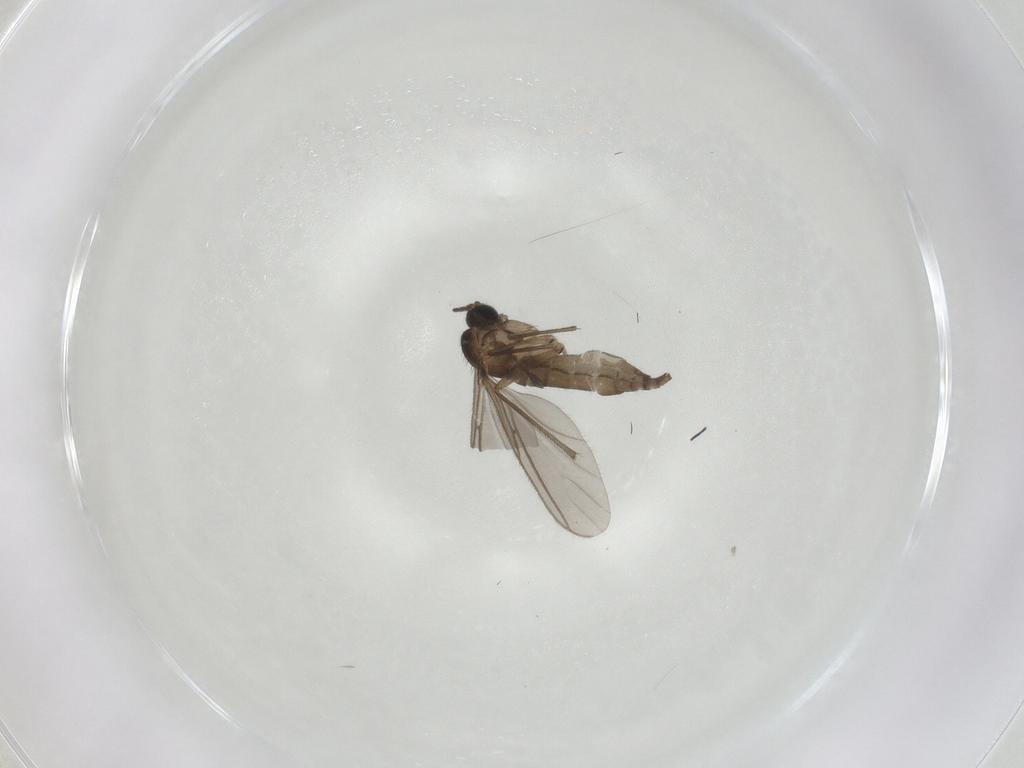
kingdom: Animalia
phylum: Arthropoda
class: Insecta
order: Diptera
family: Sciaridae
